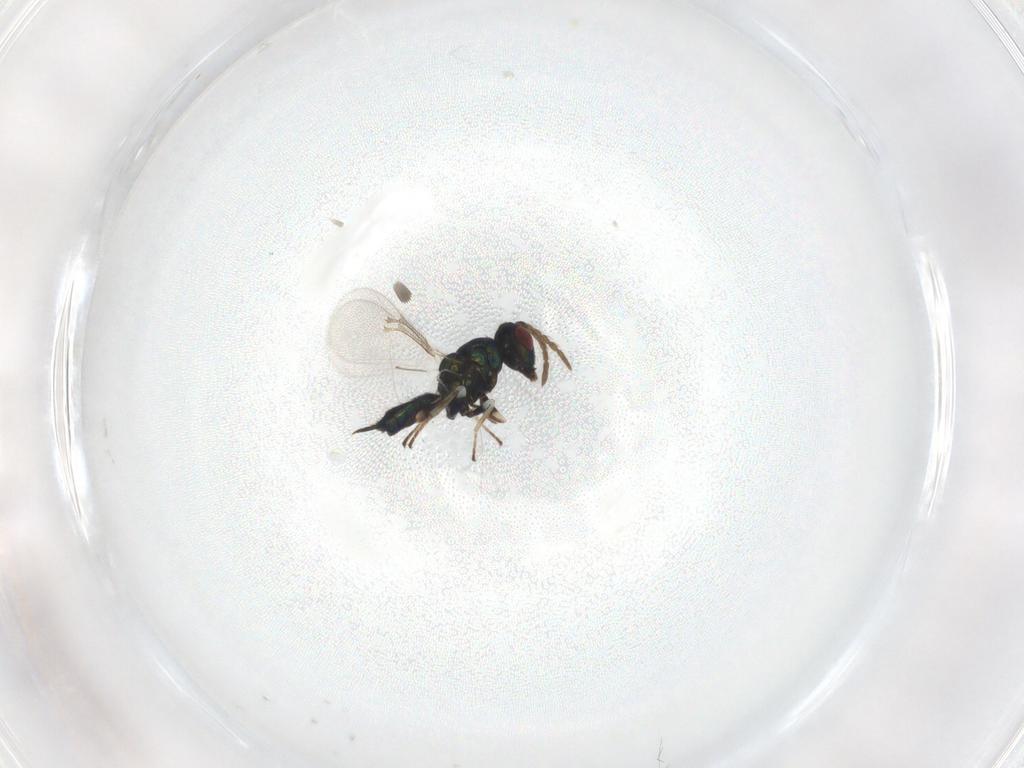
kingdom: Animalia
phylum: Arthropoda
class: Insecta
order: Hymenoptera
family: Eulophidae
